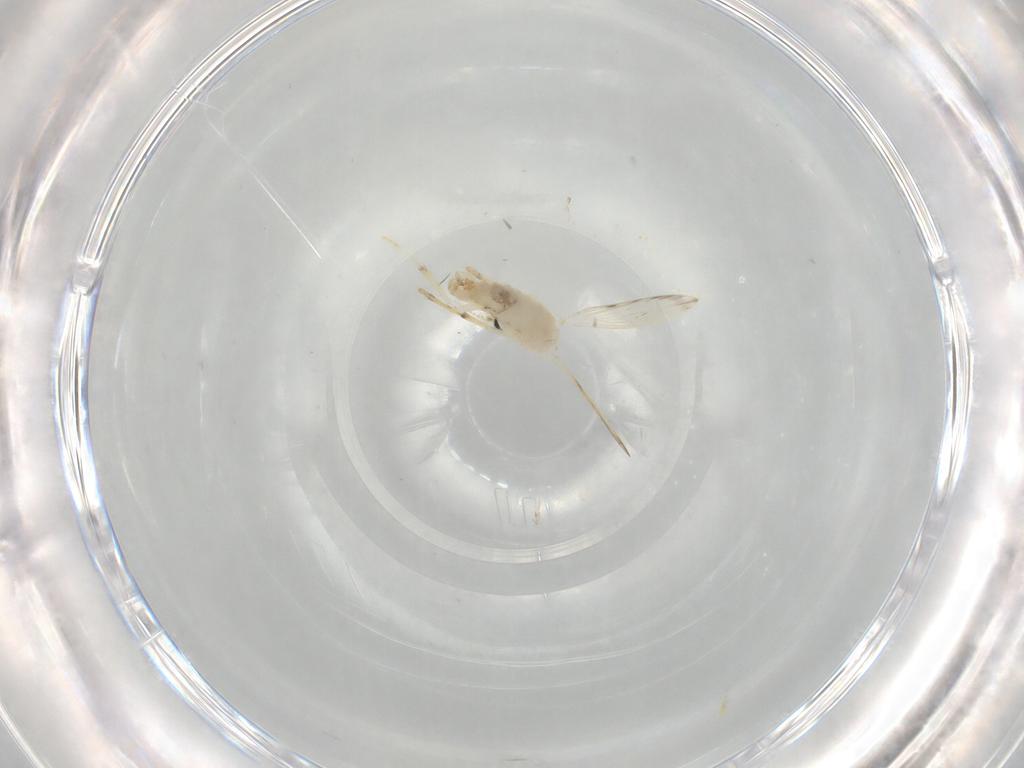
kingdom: Animalia
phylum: Arthropoda
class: Insecta
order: Diptera
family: Psychodidae
